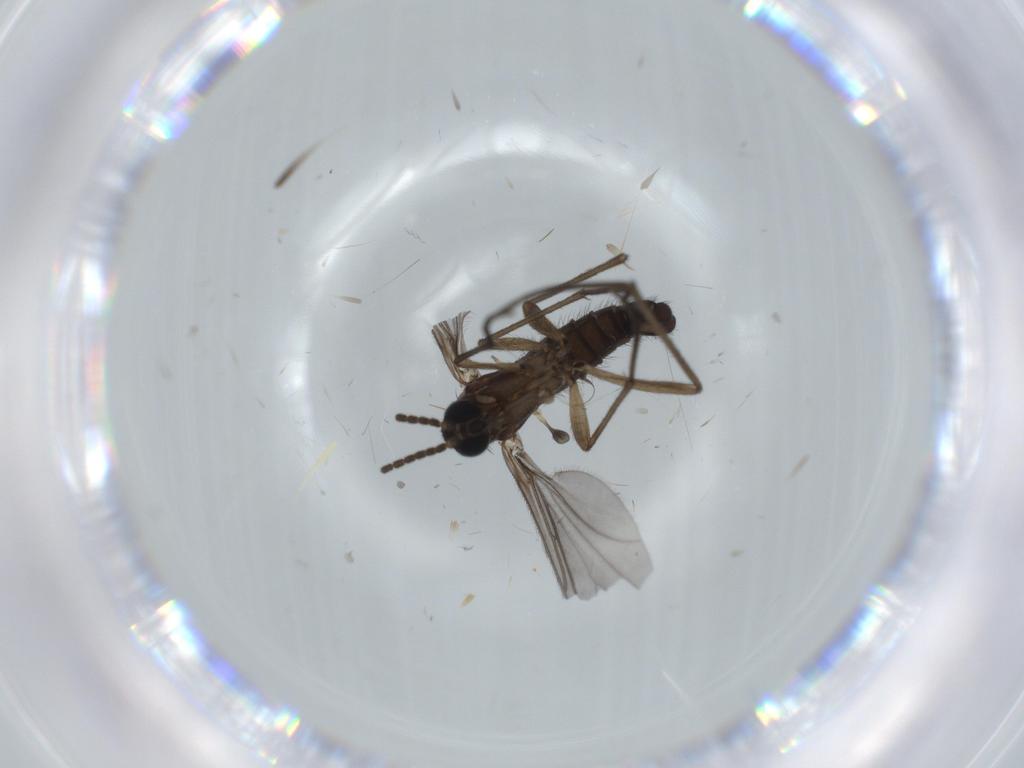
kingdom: Animalia
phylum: Arthropoda
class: Insecta
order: Diptera
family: Sciaridae
